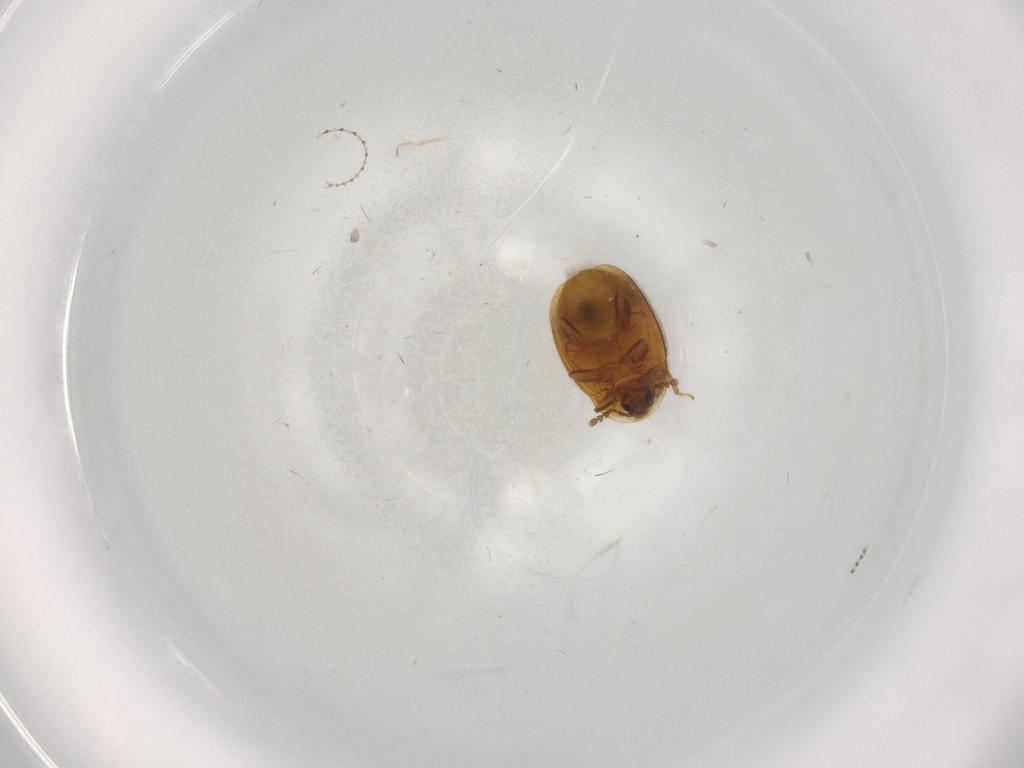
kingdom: Animalia
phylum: Arthropoda
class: Insecta
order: Coleoptera
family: Corylophidae
